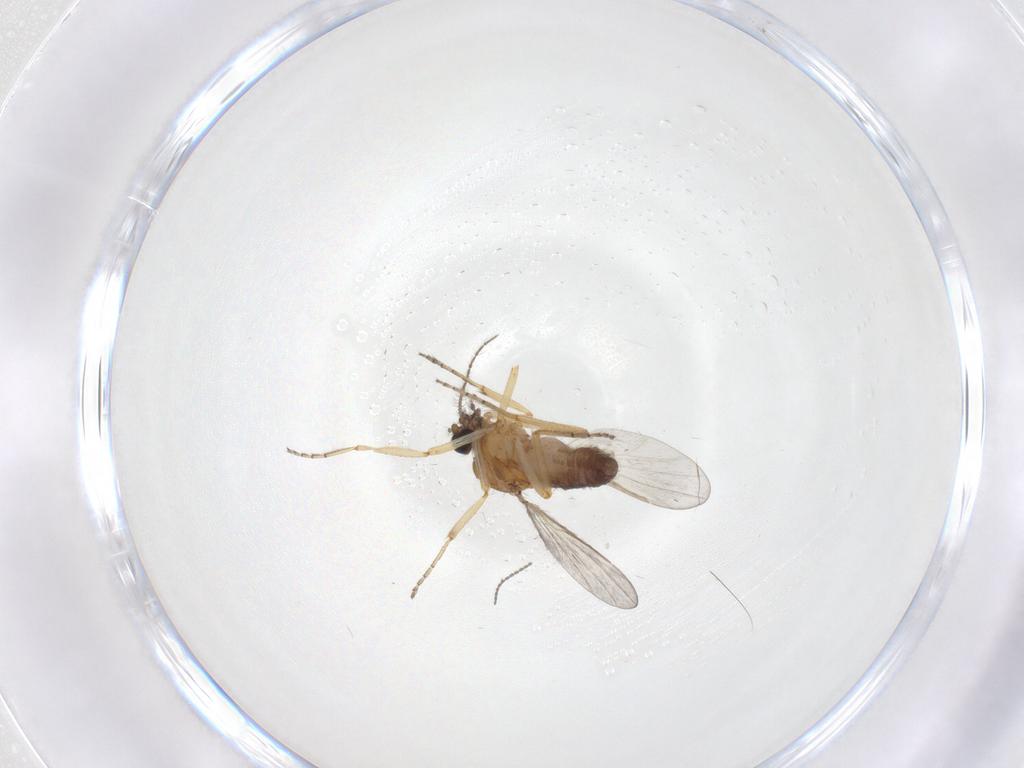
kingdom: Animalia
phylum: Arthropoda
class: Insecta
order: Diptera
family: Ceratopogonidae
